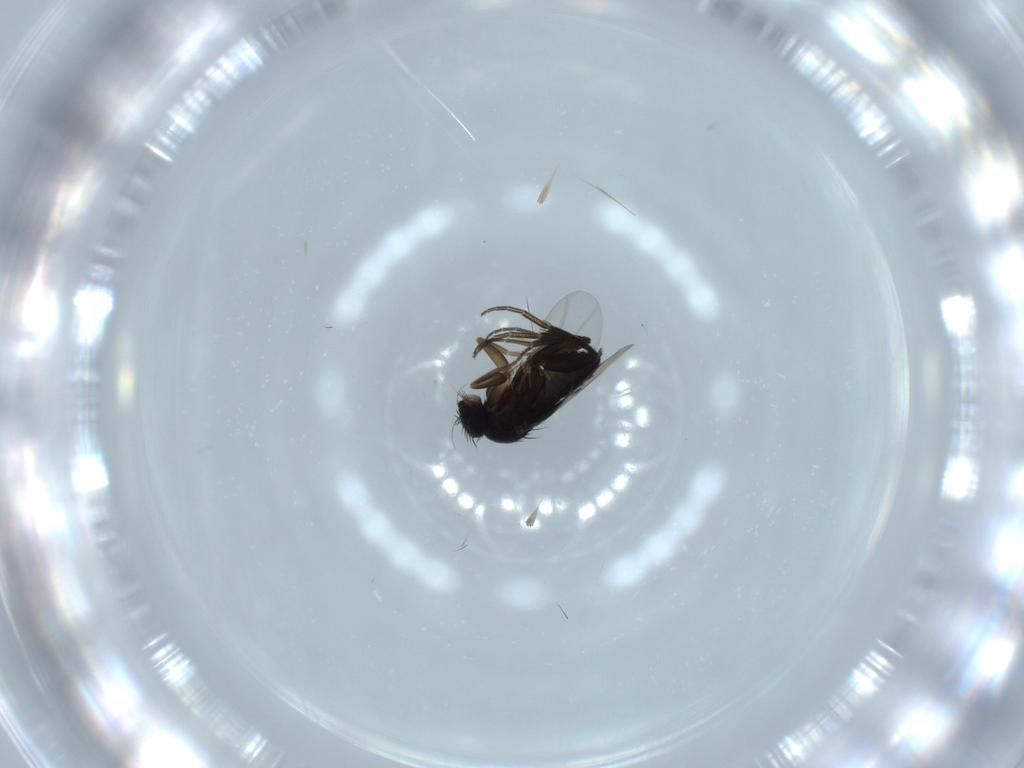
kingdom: Animalia
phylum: Arthropoda
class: Insecta
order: Diptera
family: Phoridae
